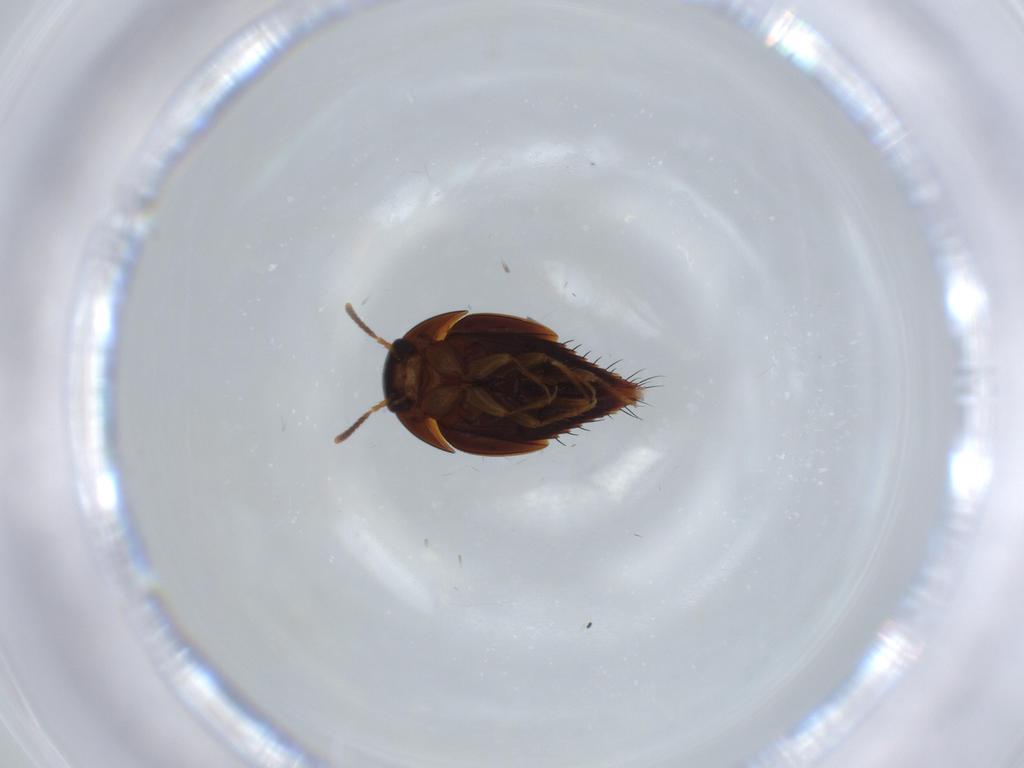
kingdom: Animalia
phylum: Arthropoda
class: Insecta
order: Coleoptera
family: Staphylinidae
